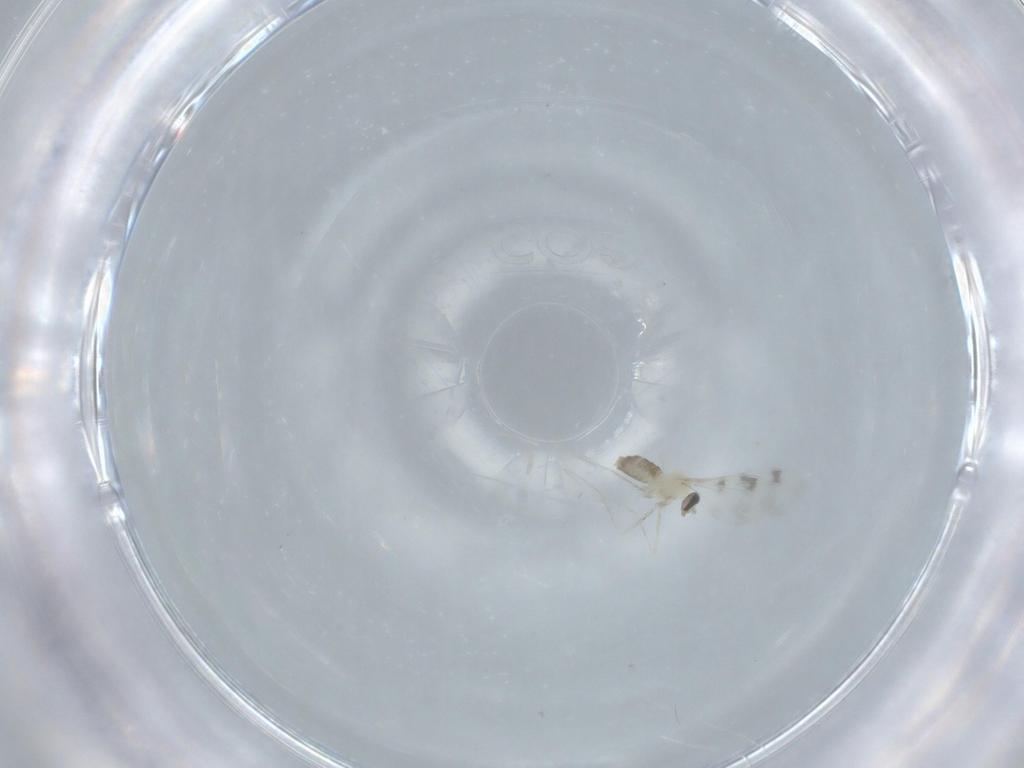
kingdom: Animalia
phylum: Arthropoda
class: Insecta
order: Diptera
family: Cecidomyiidae
